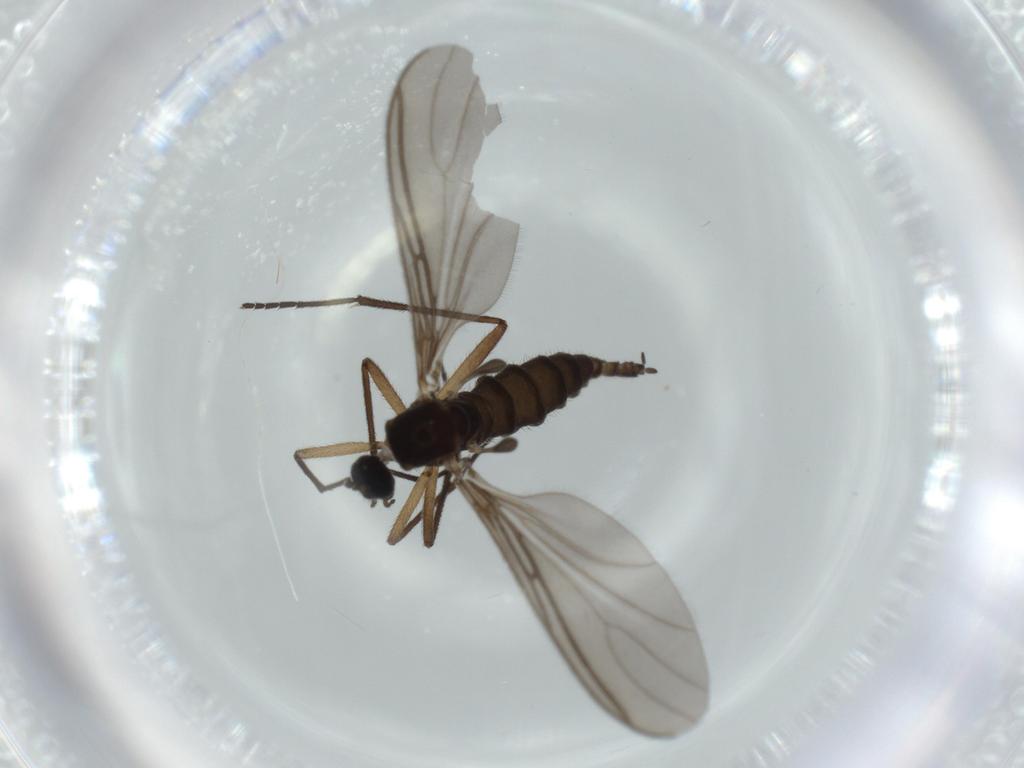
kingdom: Animalia
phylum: Arthropoda
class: Insecta
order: Diptera
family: Sciaridae
